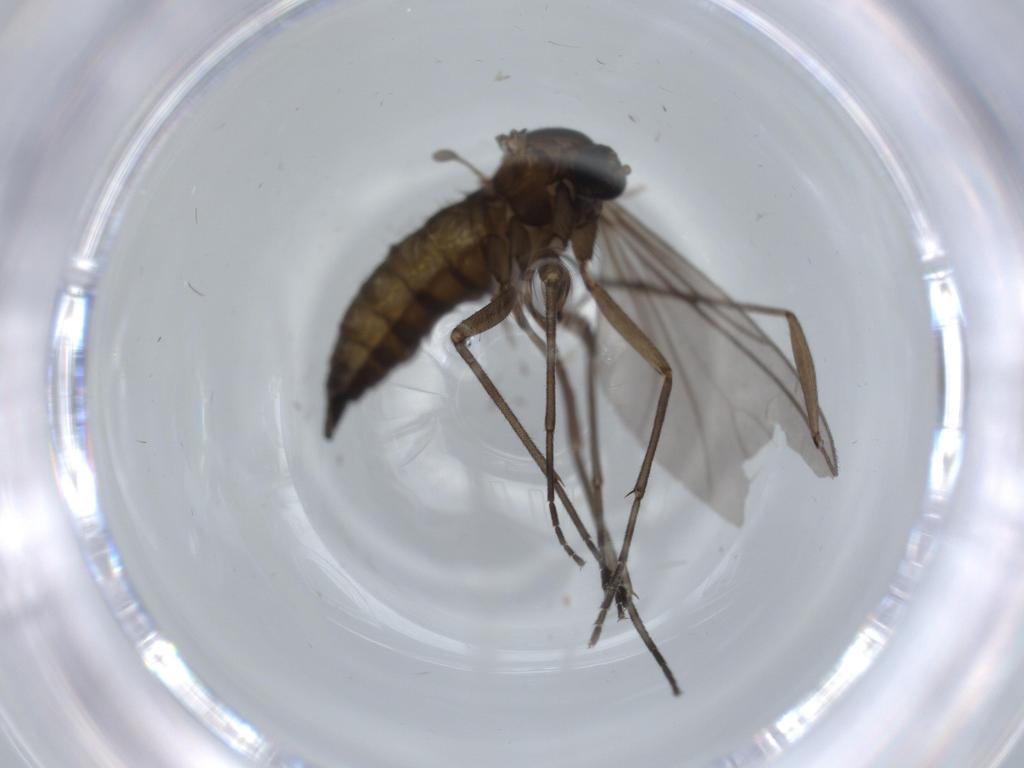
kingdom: Animalia
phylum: Arthropoda
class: Insecta
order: Diptera
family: Sciaridae
